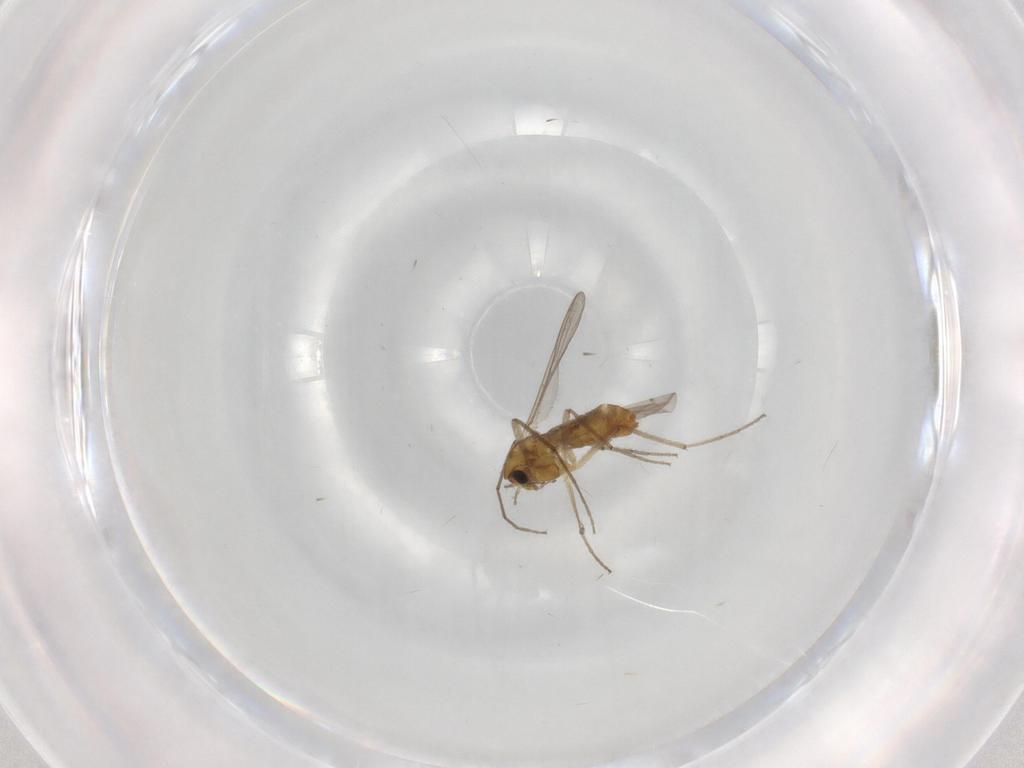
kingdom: Animalia
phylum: Arthropoda
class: Insecta
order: Diptera
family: Chironomidae
